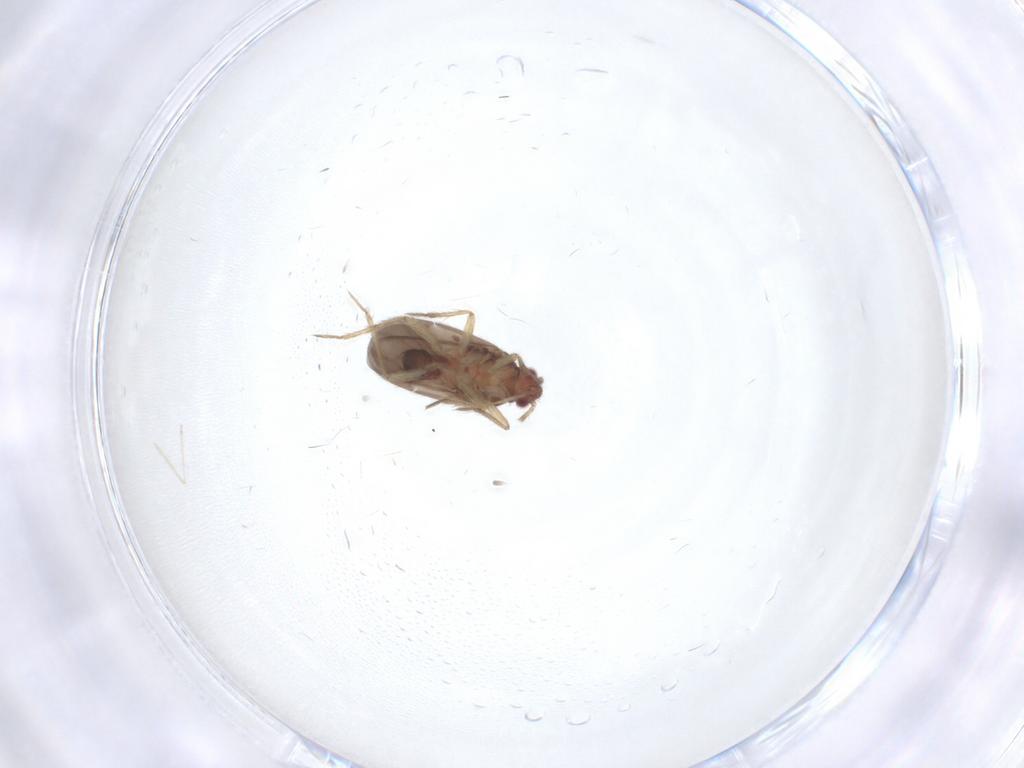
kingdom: Animalia
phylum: Arthropoda
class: Insecta
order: Hemiptera
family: Ceratocombidae
